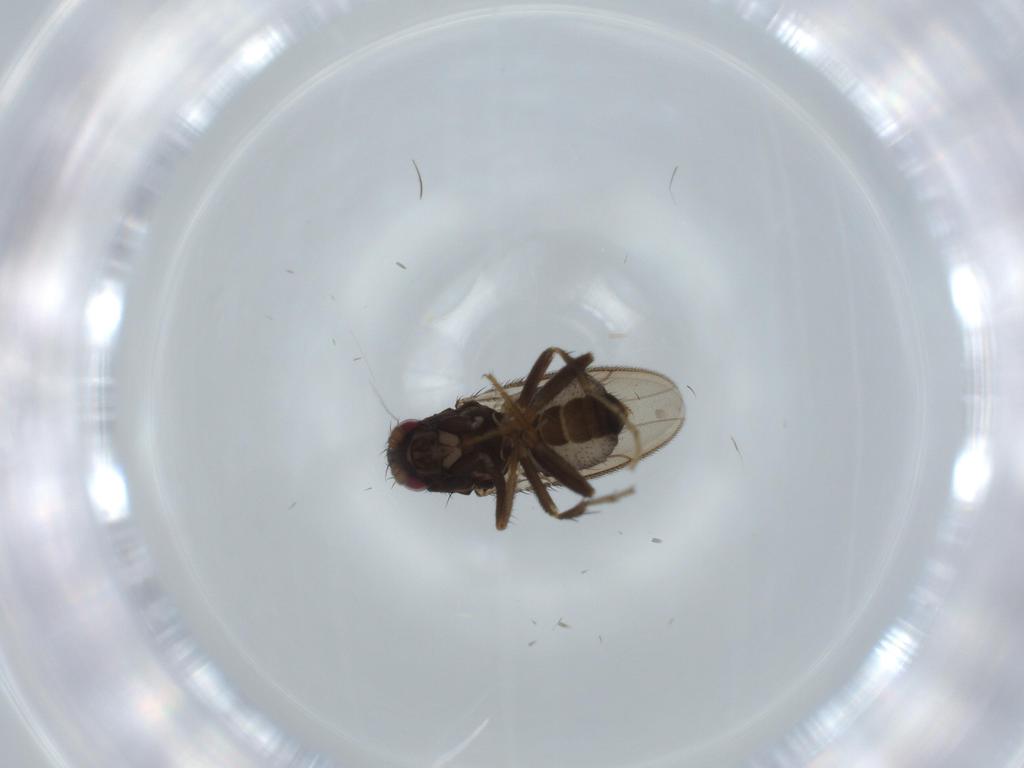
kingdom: Animalia
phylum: Arthropoda
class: Insecta
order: Diptera
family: Sphaeroceridae
